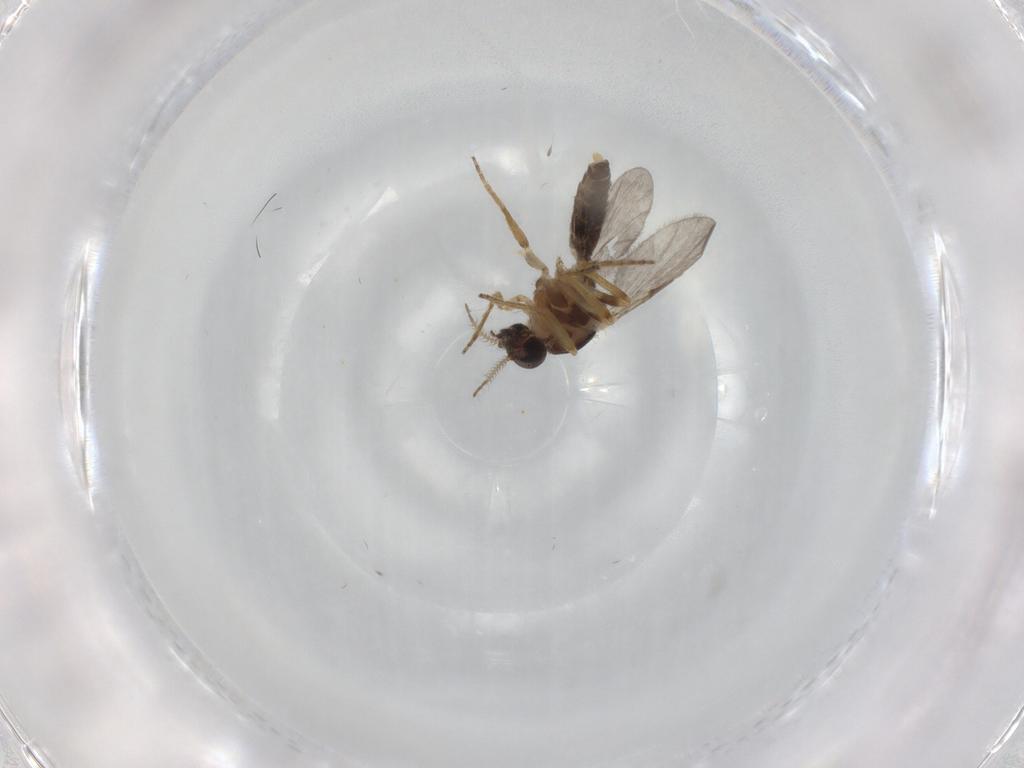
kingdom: Animalia
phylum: Arthropoda
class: Insecta
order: Diptera
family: Ceratopogonidae
